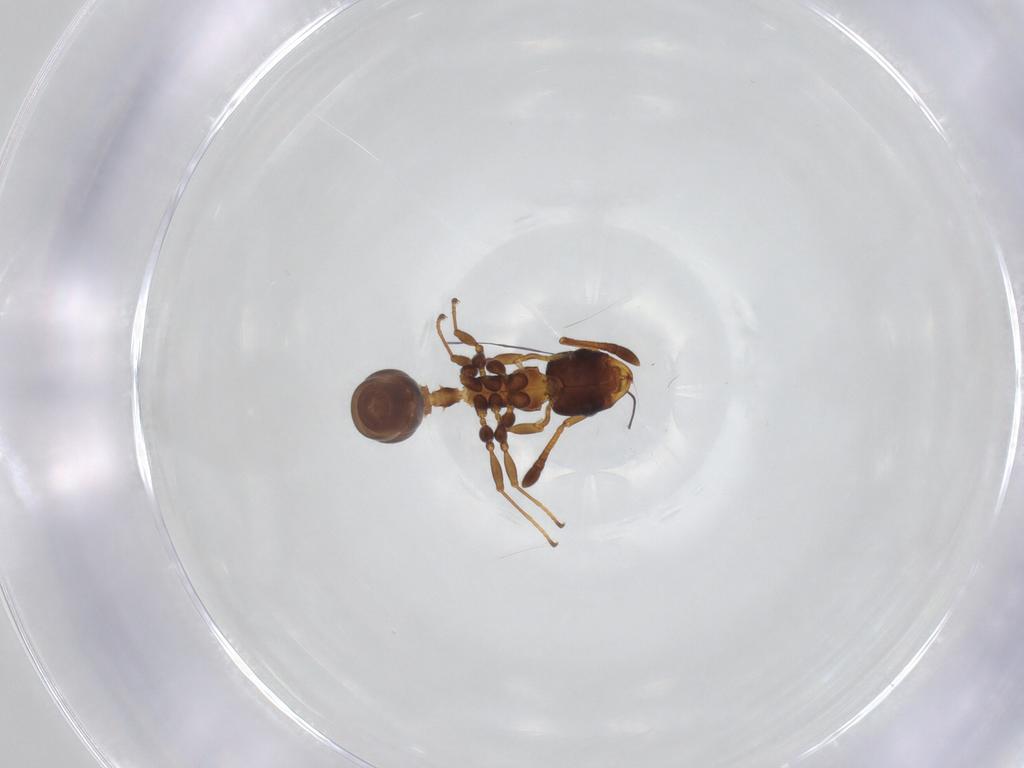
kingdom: Animalia
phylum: Arthropoda
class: Insecta
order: Hymenoptera
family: Formicidae
